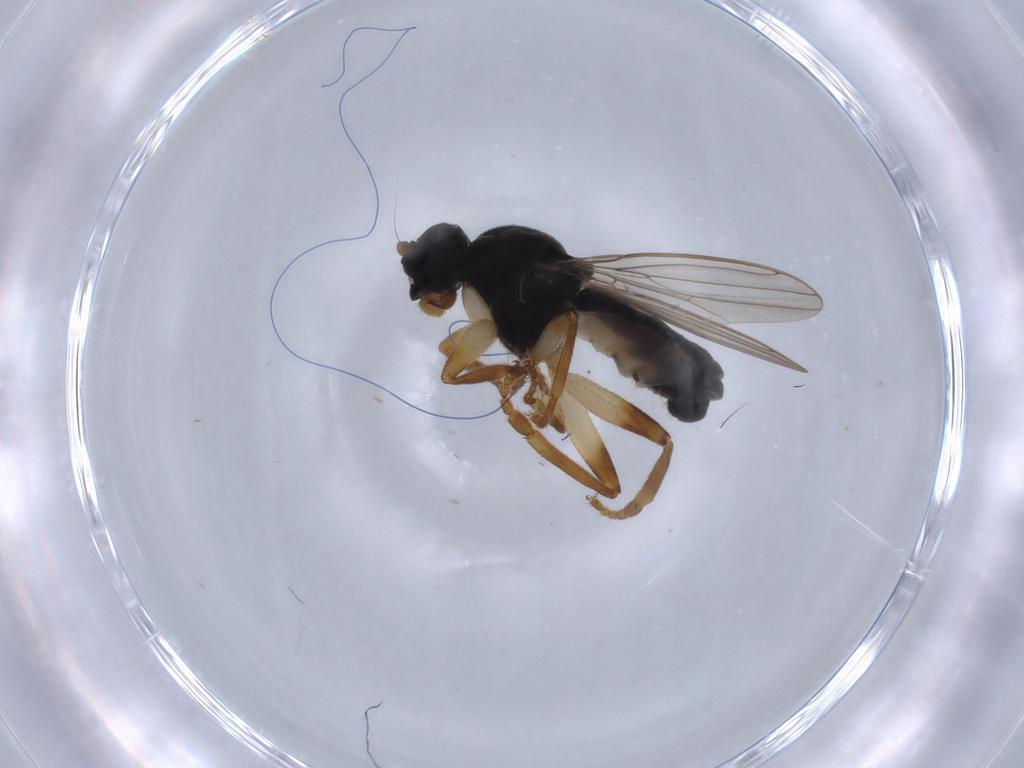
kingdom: Animalia
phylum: Arthropoda
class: Insecta
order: Diptera
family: Sphaeroceridae
